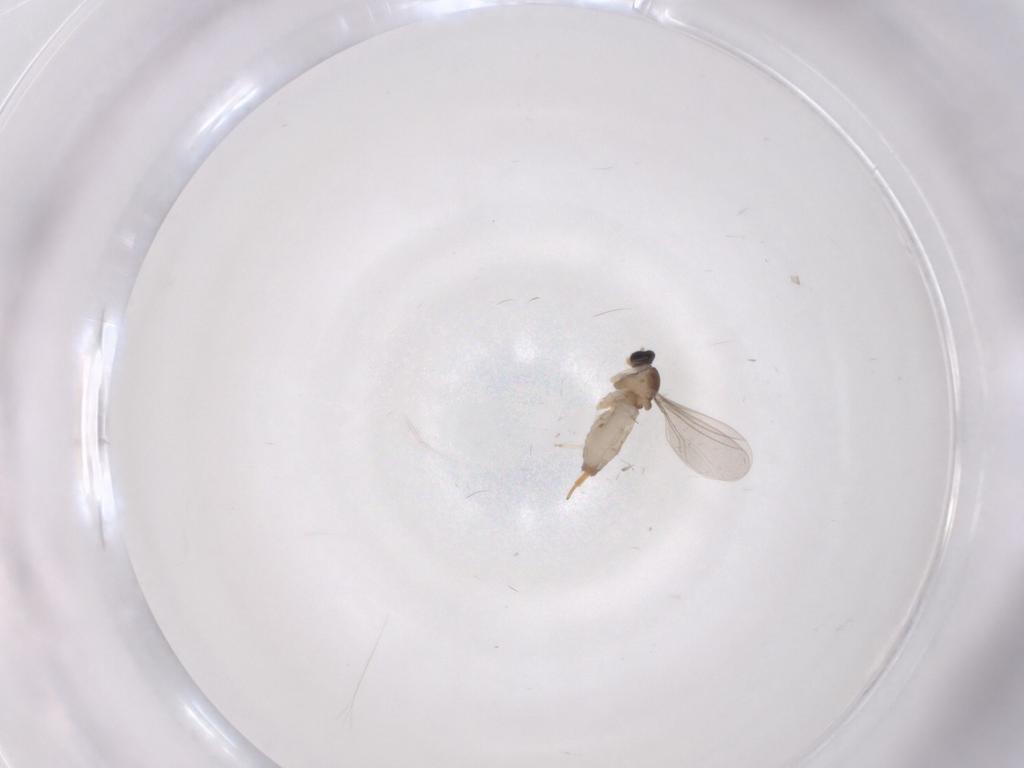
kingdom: Animalia
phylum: Arthropoda
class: Insecta
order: Diptera
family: Cecidomyiidae
